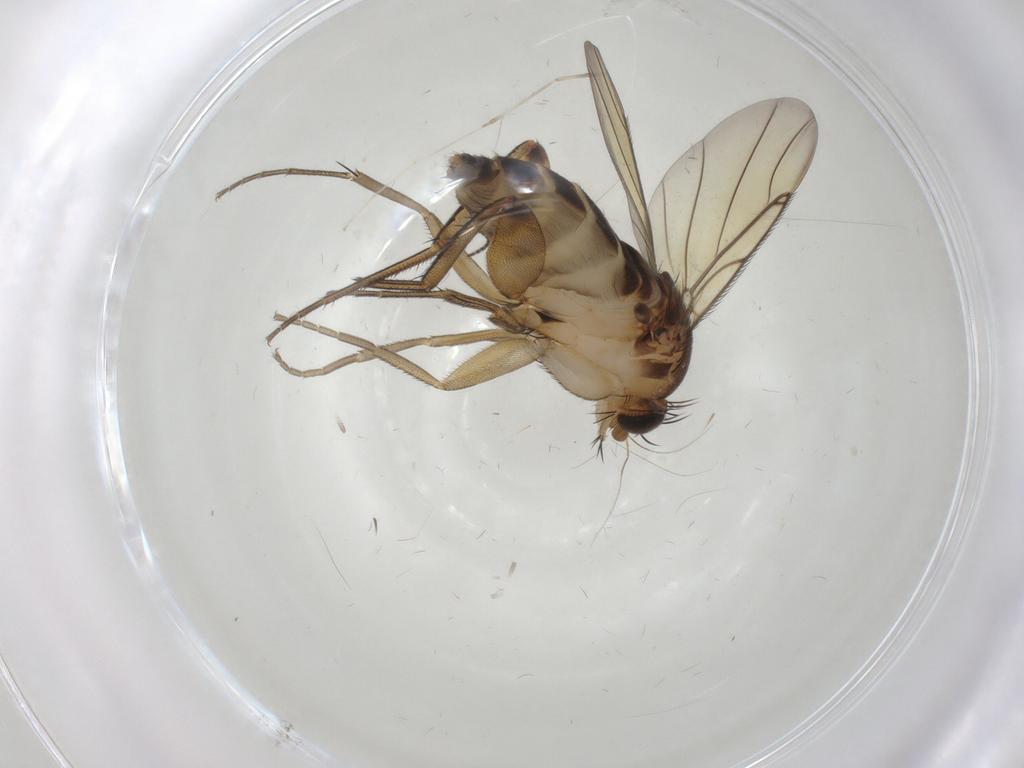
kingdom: Animalia
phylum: Arthropoda
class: Insecta
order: Diptera
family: Phoridae
